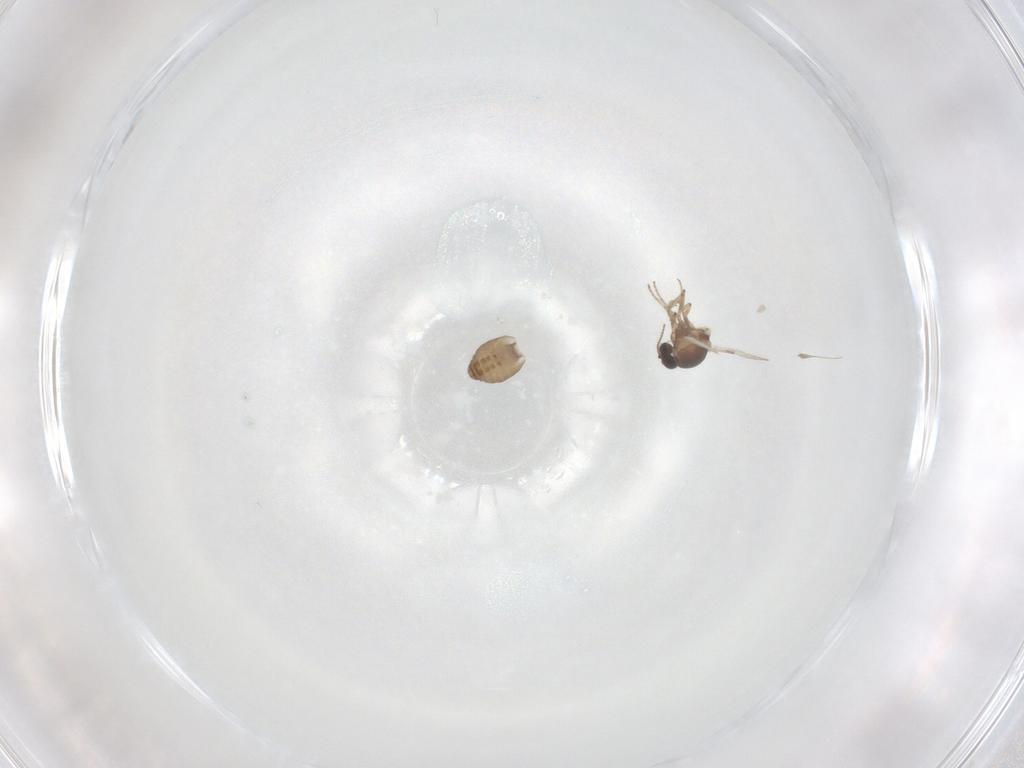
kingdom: Animalia
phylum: Arthropoda
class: Insecta
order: Diptera
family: Ceratopogonidae
